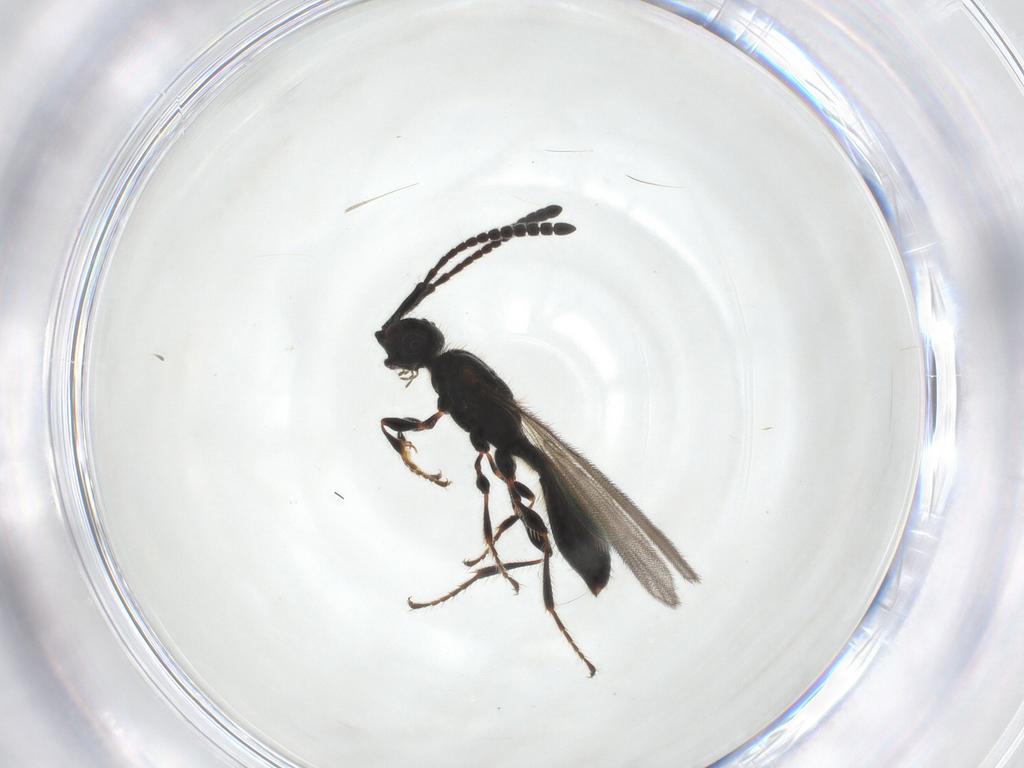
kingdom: Animalia
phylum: Arthropoda
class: Insecta
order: Hymenoptera
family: Diapriidae
